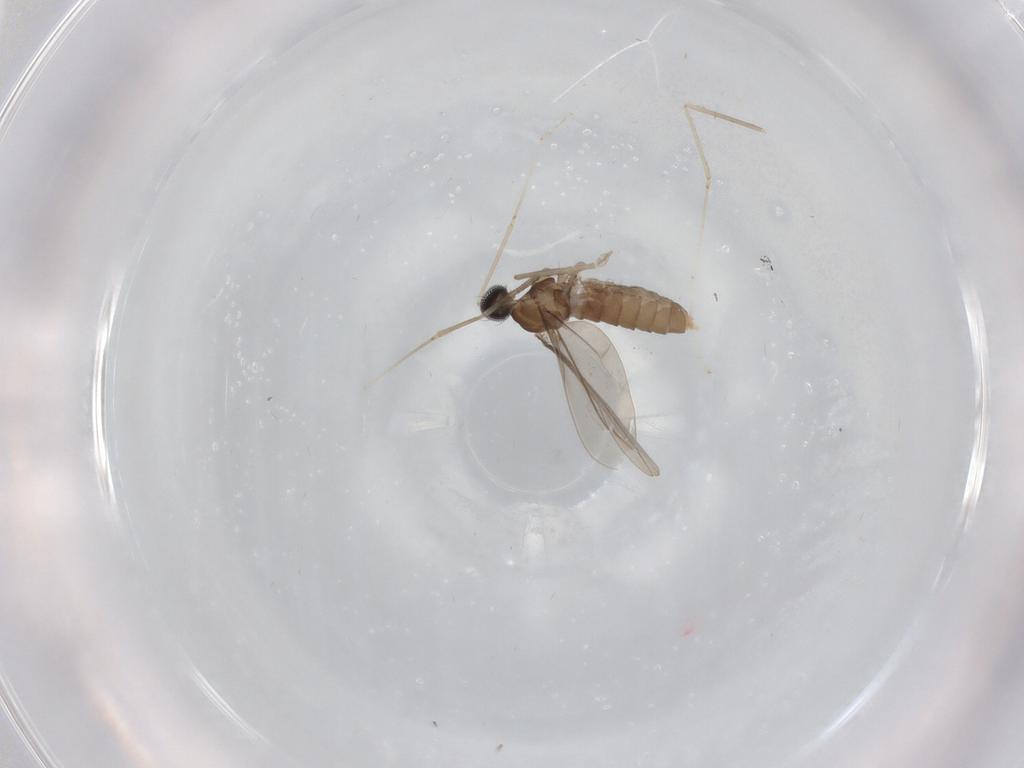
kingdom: Animalia
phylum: Arthropoda
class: Insecta
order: Diptera
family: Cecidomyiidae
